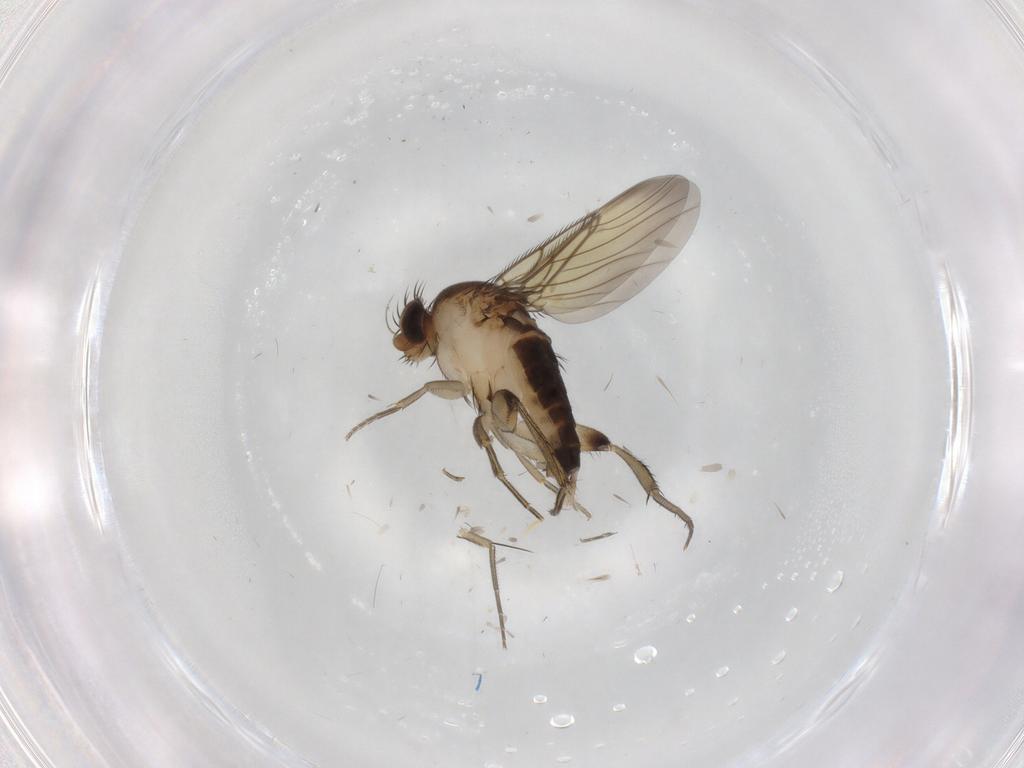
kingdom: Animalia
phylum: Arthropoda
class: Insecta
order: Diptera
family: Phoridae
